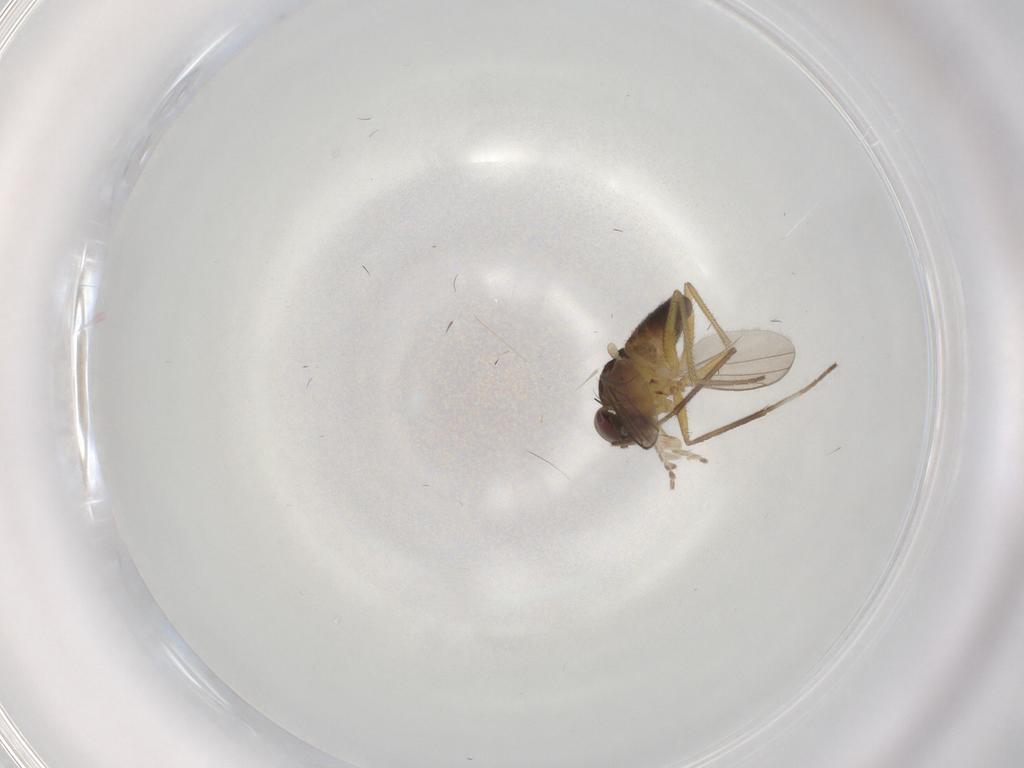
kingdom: Animalia
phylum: Arthropoda
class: Insecta
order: Diptera
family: Dolichopodidae
